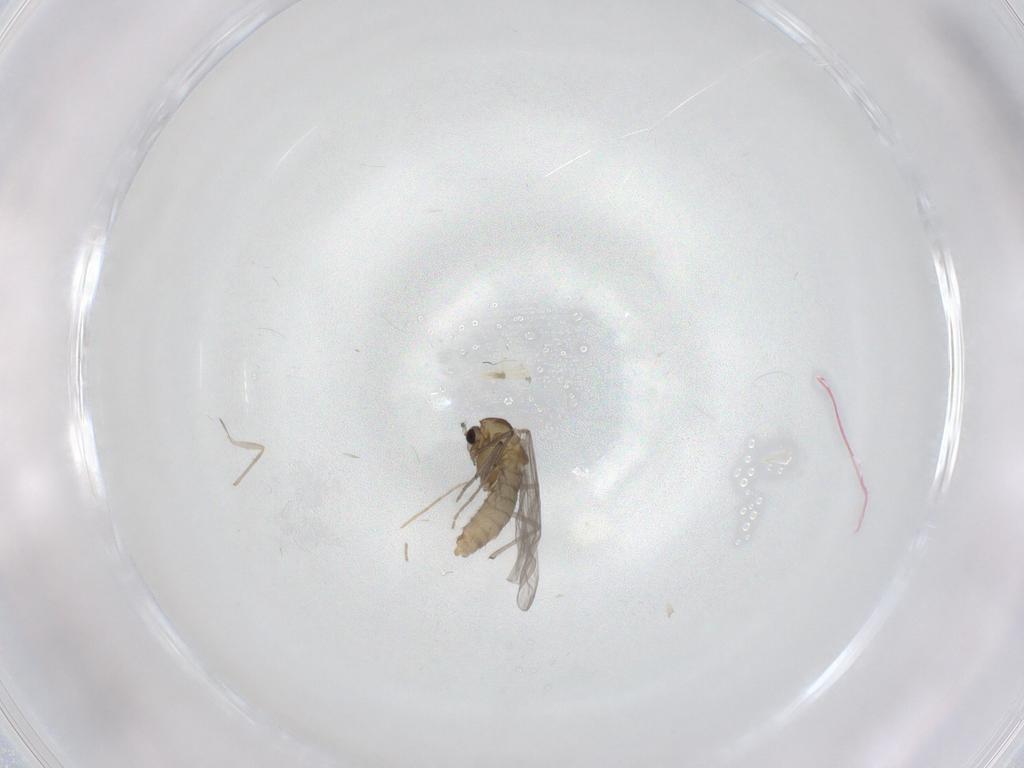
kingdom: Animalia
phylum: Arthropoda
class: Insecta
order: Diptera
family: Chironomidae
